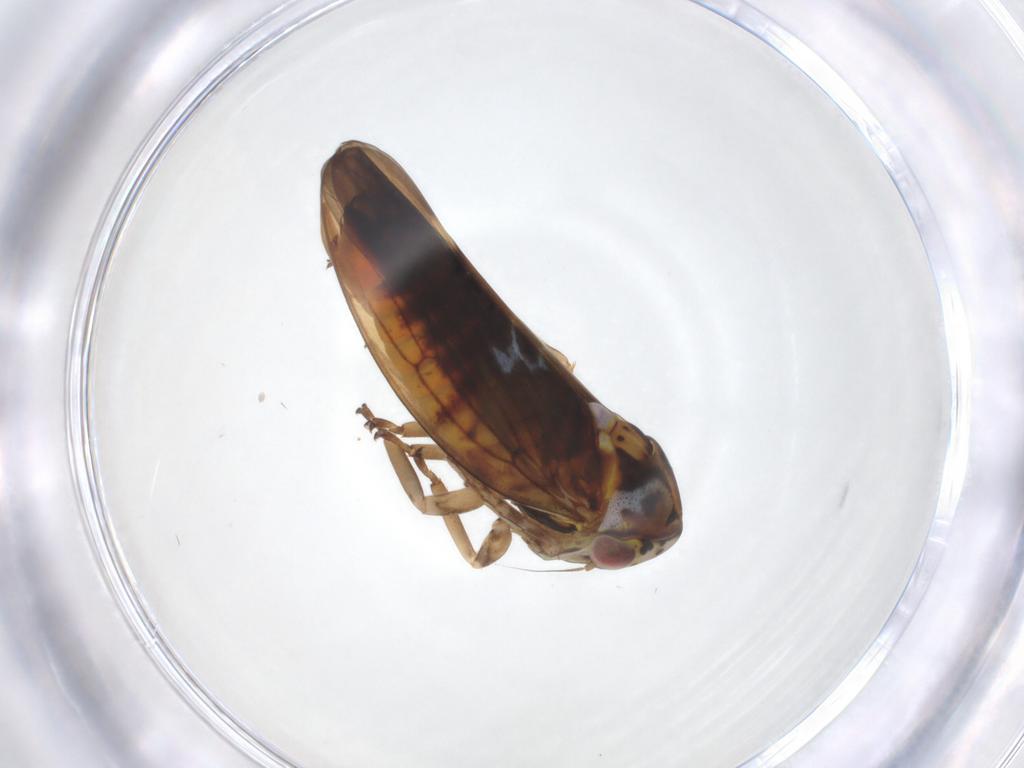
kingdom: Animalia
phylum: Arthropoda
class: Insecta
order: Hemiptera
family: Cicadellidae
